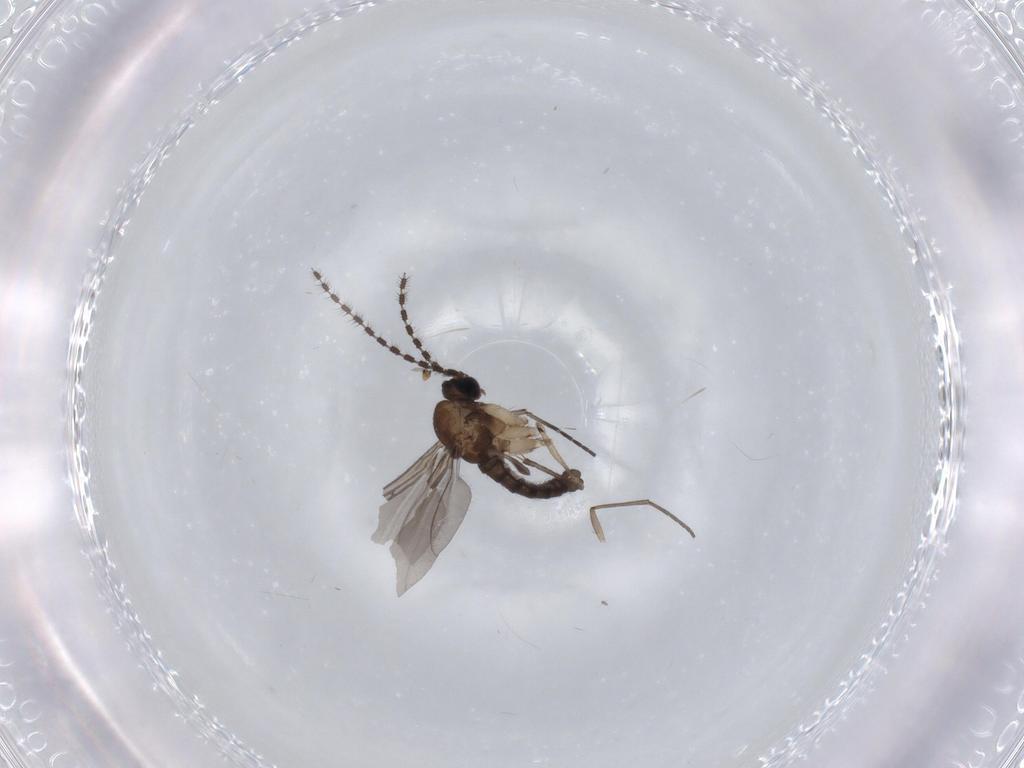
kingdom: Animalia
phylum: Arthropoda
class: Insecta
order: Diptera
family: Sciaridae
